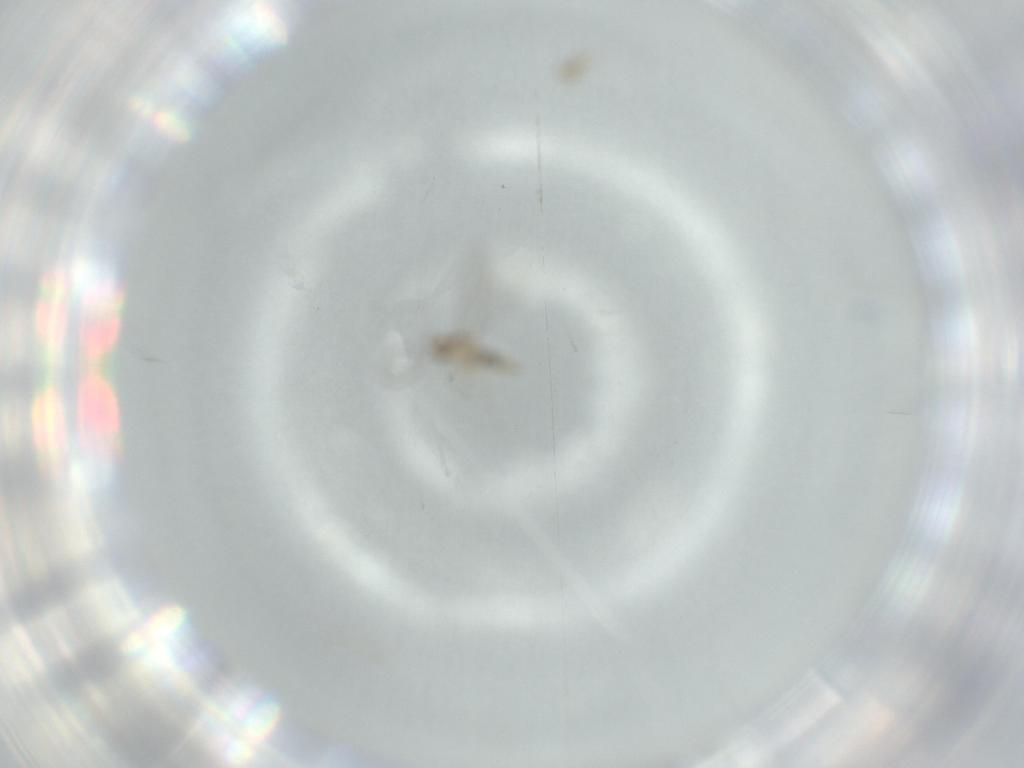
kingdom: Animalia
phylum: Arthropoda
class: Insecta
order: Diptera
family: Cecidomyiidae
